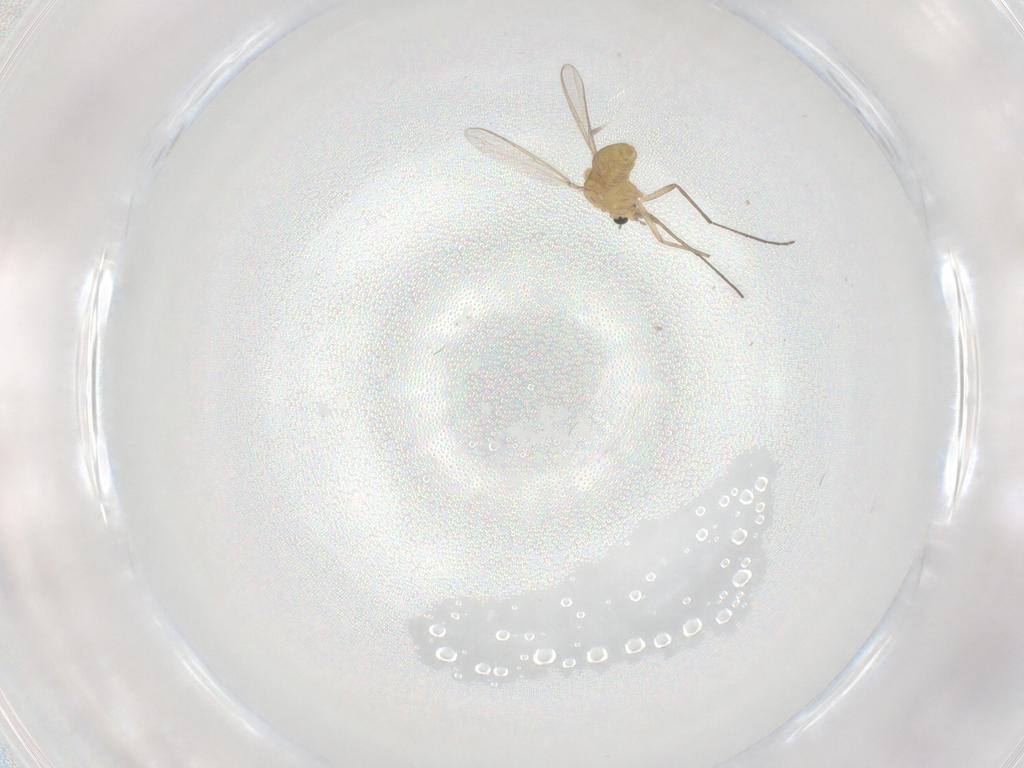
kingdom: Animalia
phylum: Arthropoda
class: Insecta
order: Diptera
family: Chironomidae
